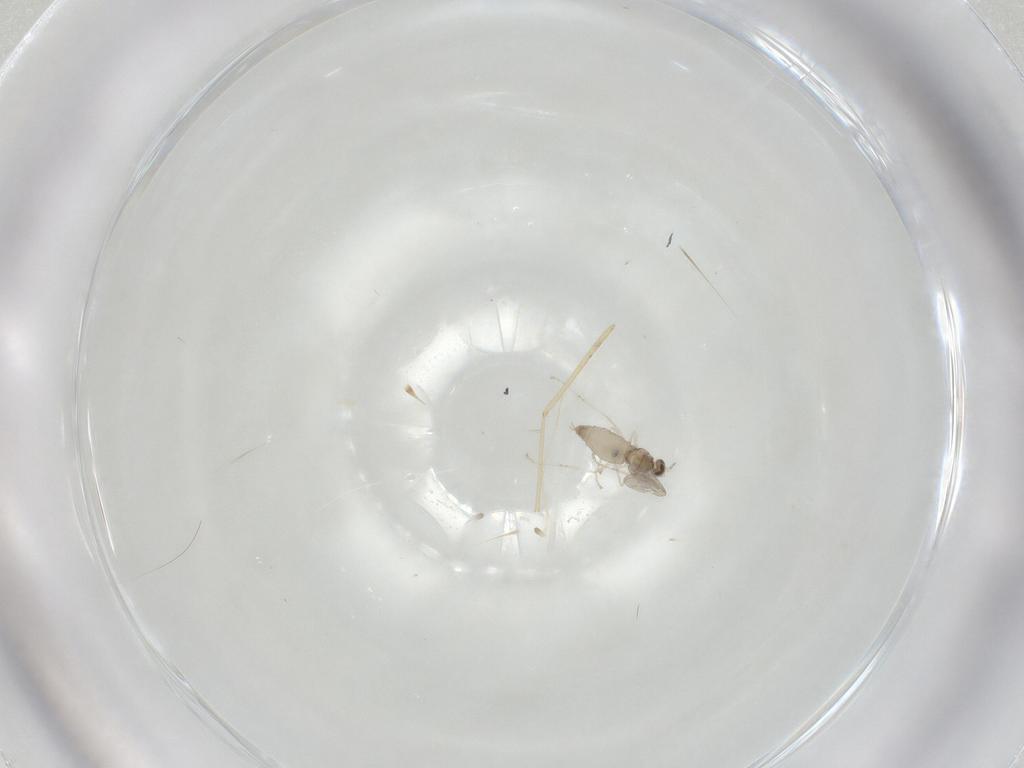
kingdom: Animalia
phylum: Arthropoda
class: Insecta
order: Diptera
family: Cecidomyiidae
